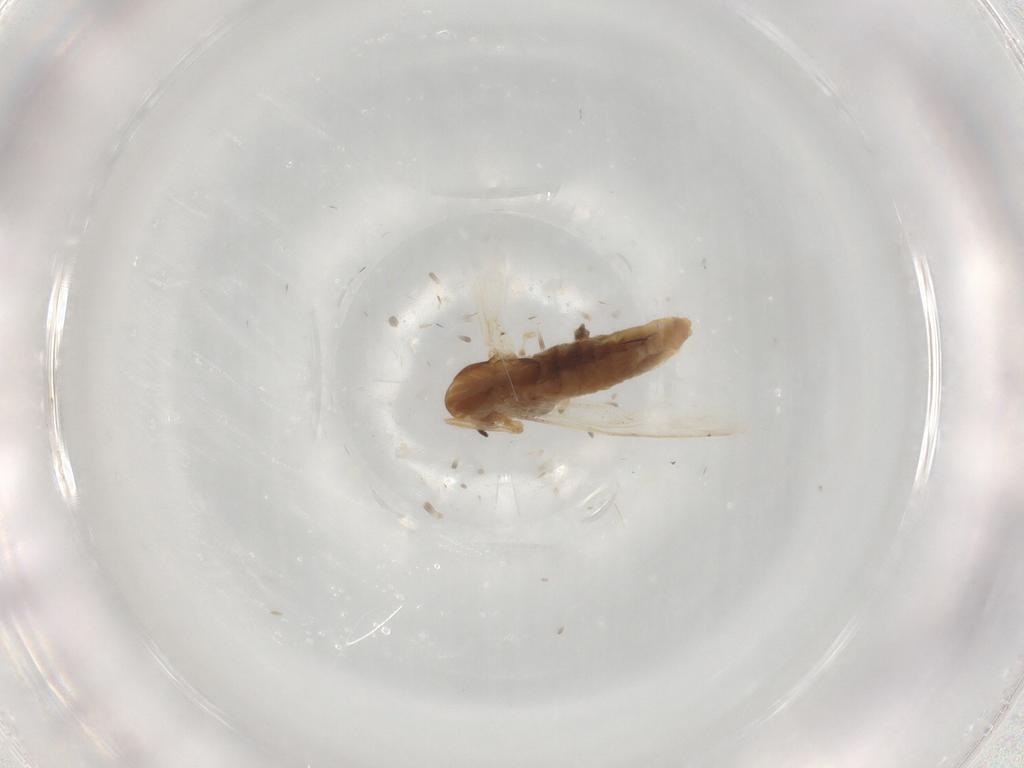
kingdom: Animalia
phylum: Arthropoda
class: Insecta
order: Diptera
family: Chironomidae
